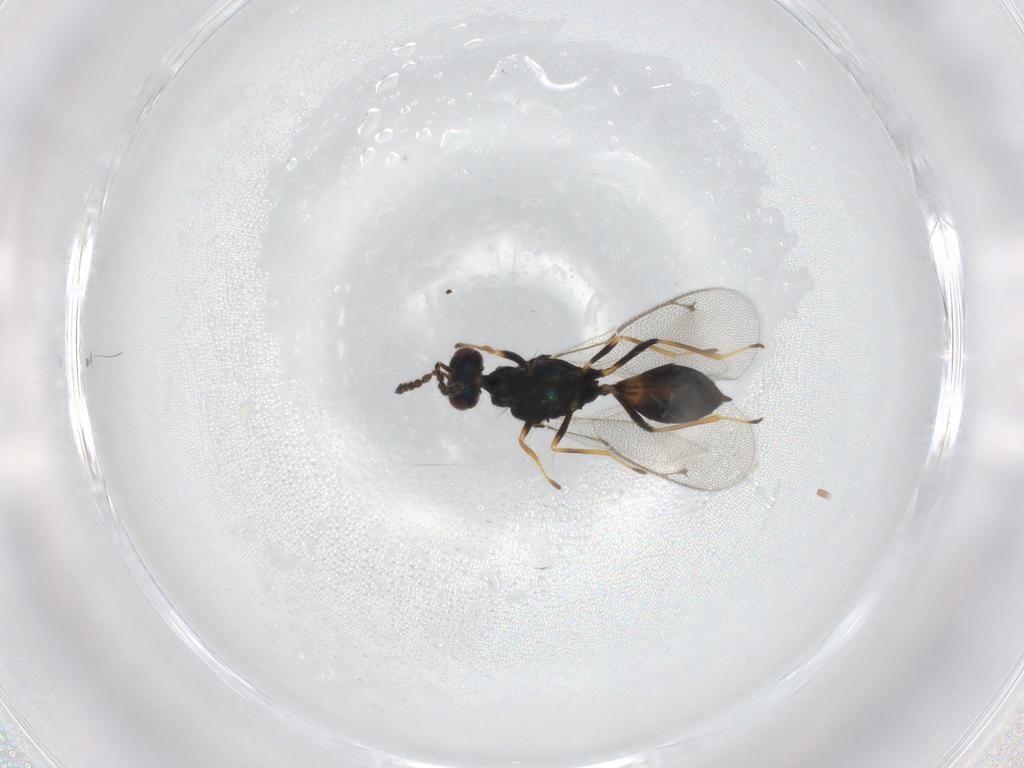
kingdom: Animalia
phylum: Arthropoda
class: Insecta
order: Hymenoptera
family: Eulophidae
